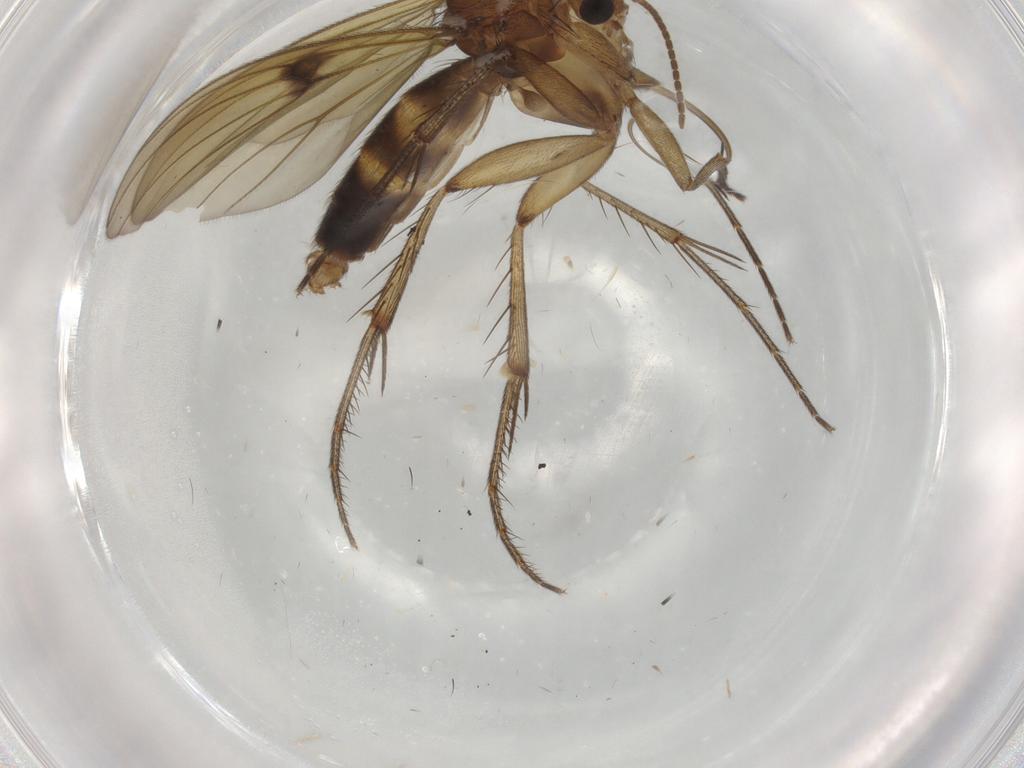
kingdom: Animalia
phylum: Arthropoda
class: Insecta
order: Diptera
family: Mycetophilidae
